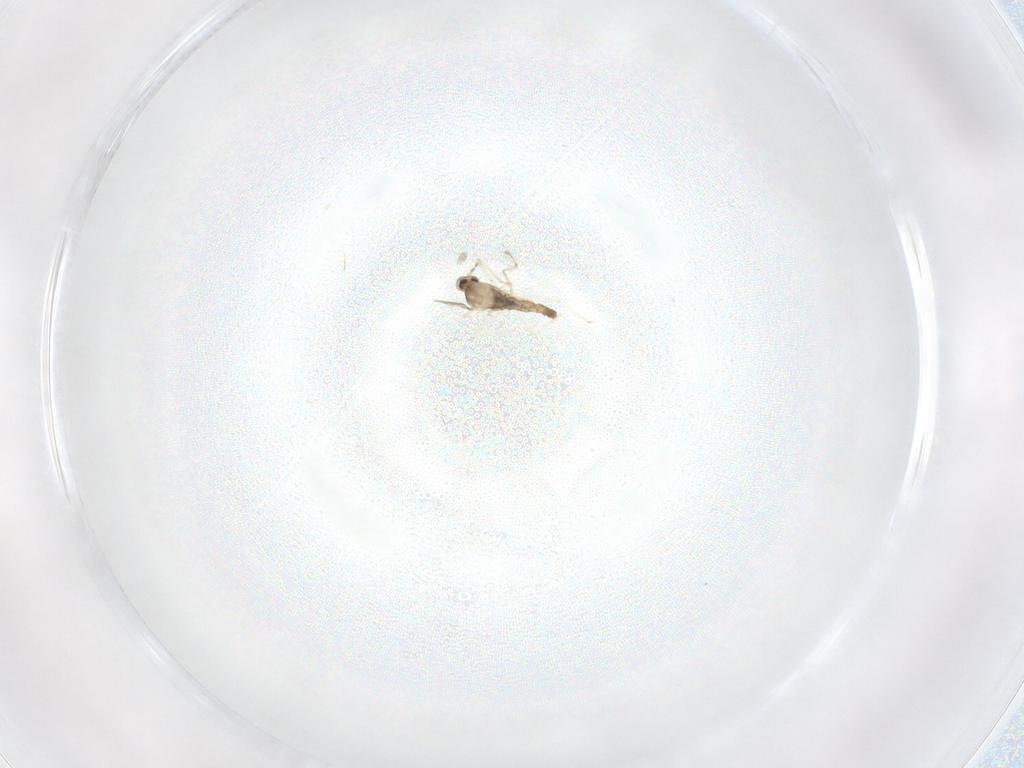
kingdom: Animalia
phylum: Arthropoda
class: Insecta
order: Diptera
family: Cecidomyiidae
